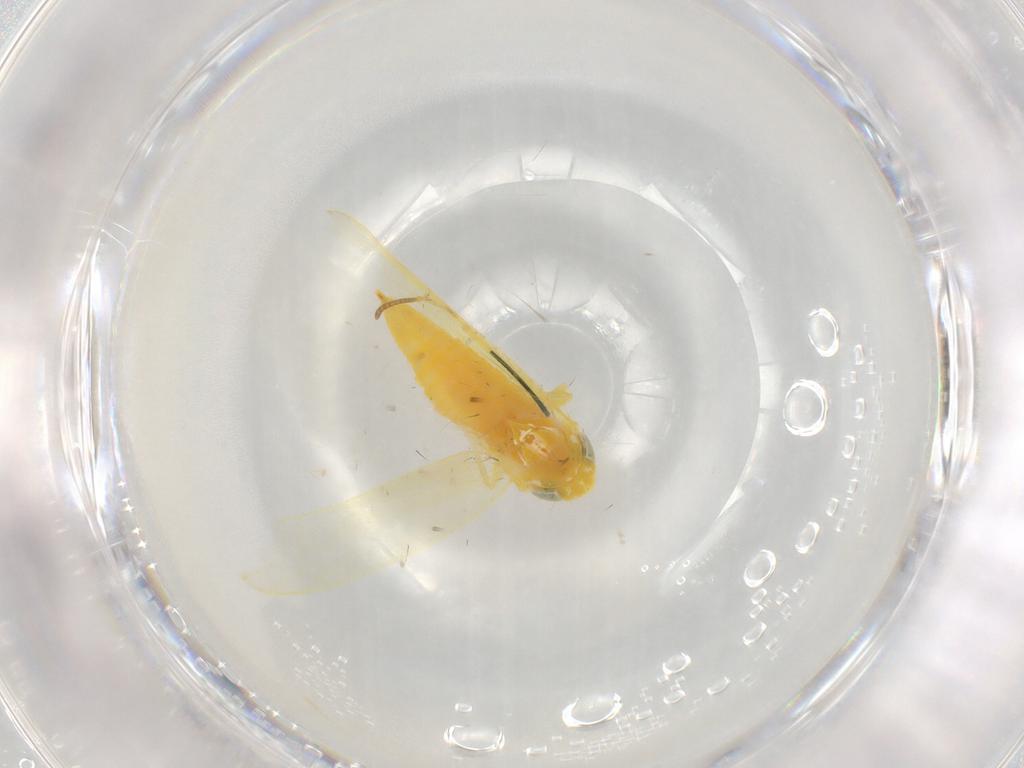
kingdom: Animalia
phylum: Arthropoda
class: Insecta
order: Hemiptera
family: Cicadellidae
